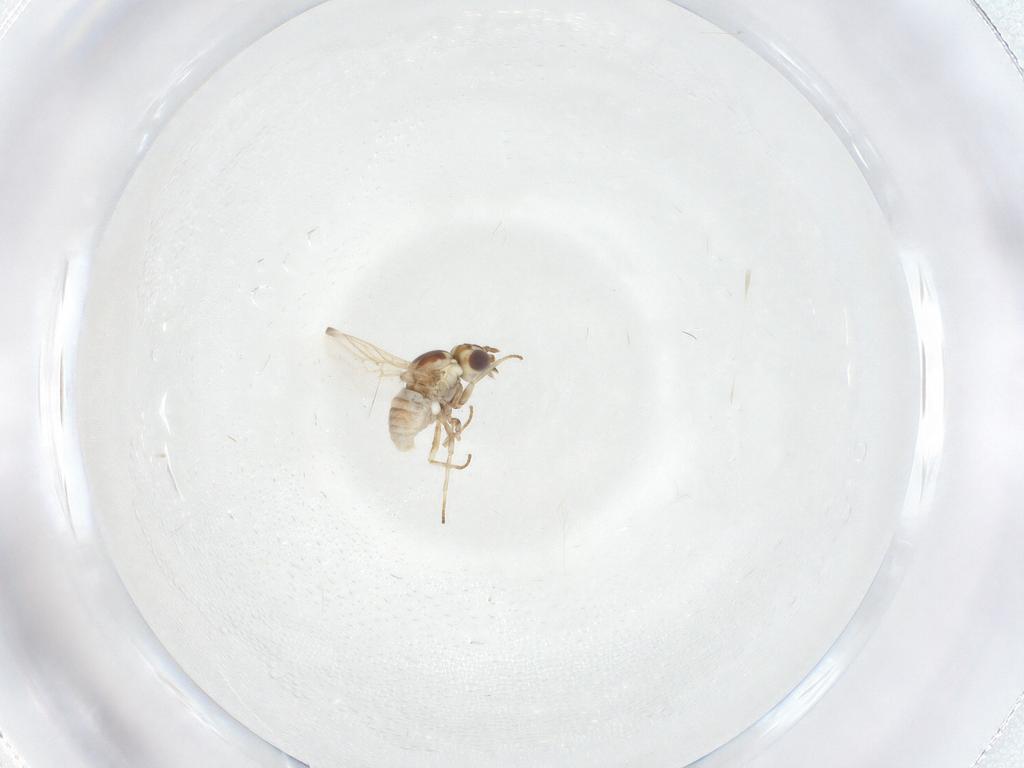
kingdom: Animalia
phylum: Arthropoda
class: Insecta
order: Diptera
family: Bombyliidae
